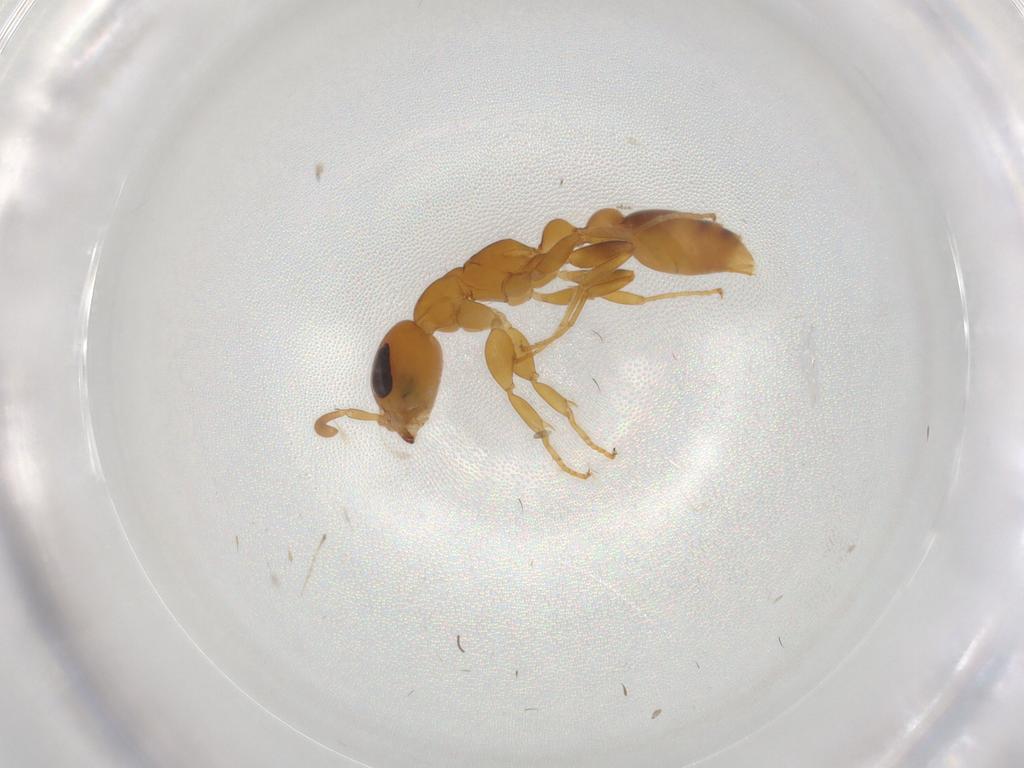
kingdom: Animalia
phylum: Arthropoda
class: Insecta
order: Hymenoptera
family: Formicidae
